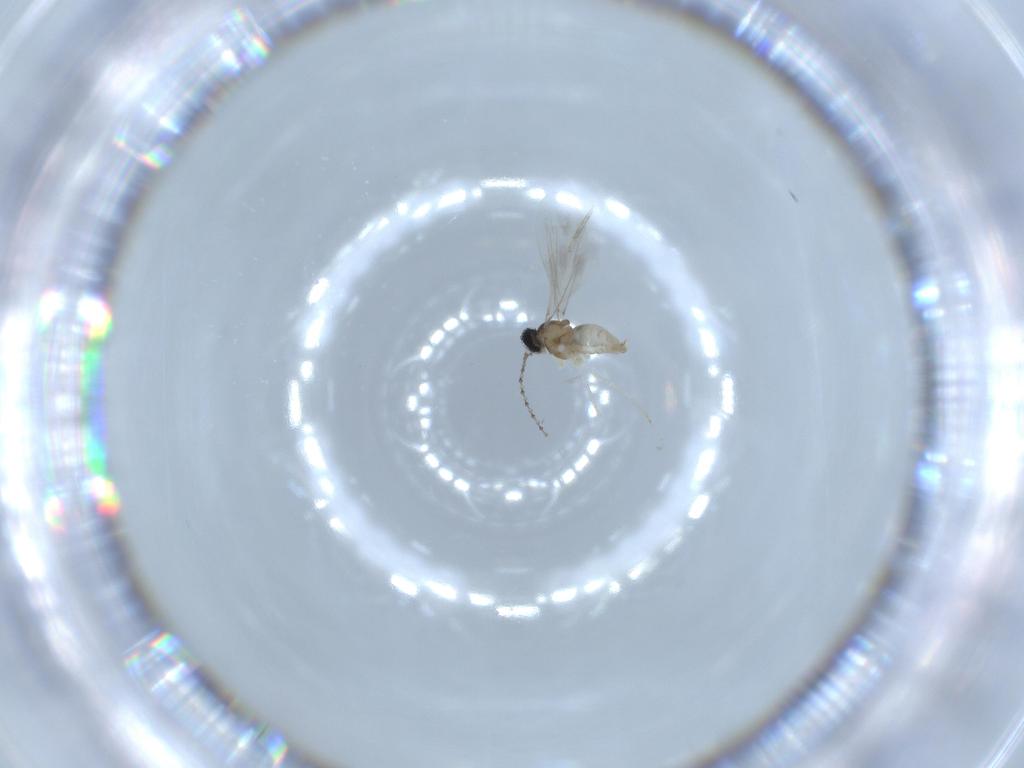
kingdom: Animalia
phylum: Arthropoda
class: Insecta
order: Diptera
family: Cecidomyiidae
